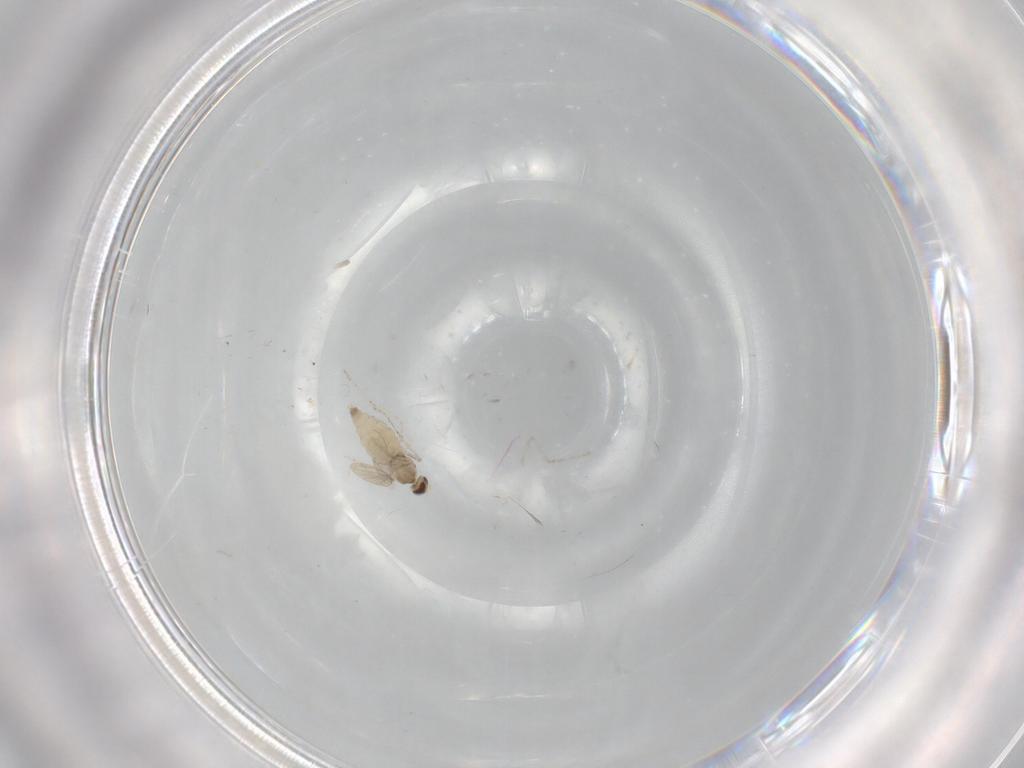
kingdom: Animalia
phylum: Arthropoda
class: Insecta
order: Diptera
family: Cecidomyiidae
